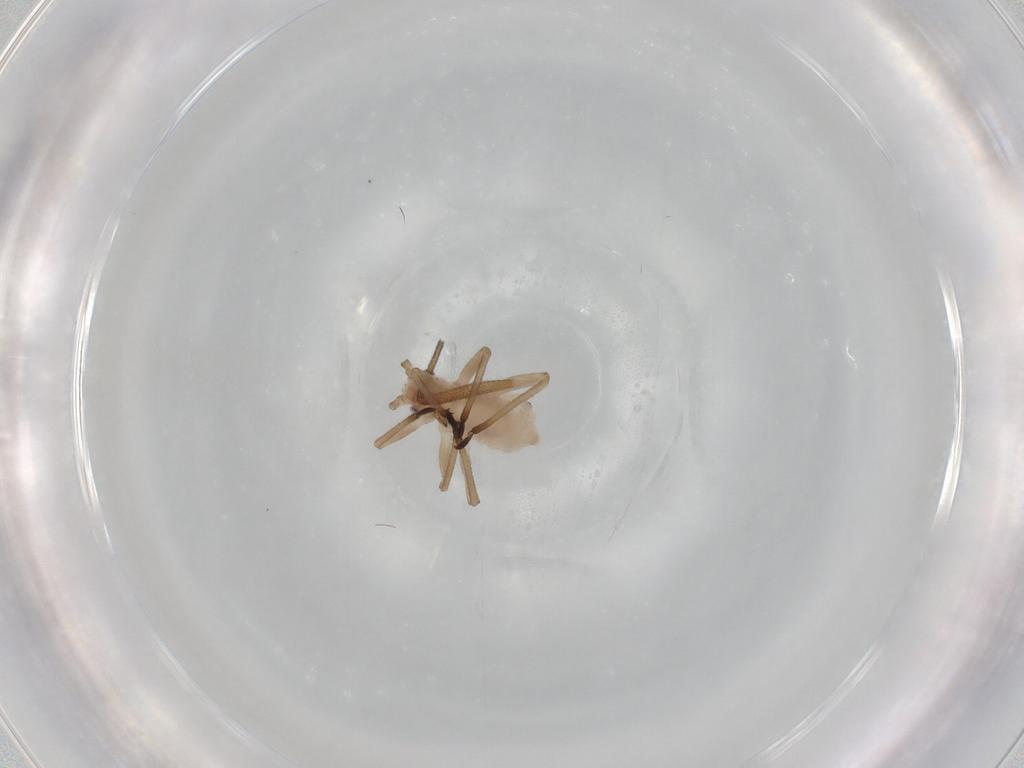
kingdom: Animalia
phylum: Arthropoda
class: Insecta
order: Hemiptera
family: Aphididae
